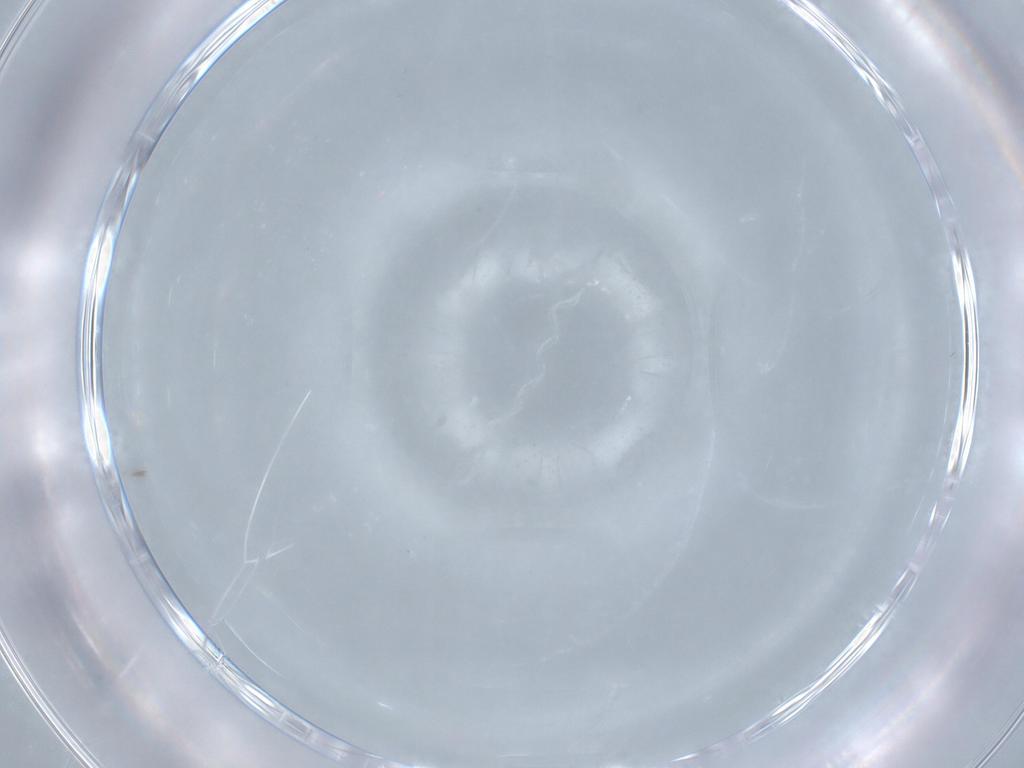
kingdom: Animalia
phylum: Arthropoda
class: Insecta
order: Hemiptera
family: Aleyrodidae
